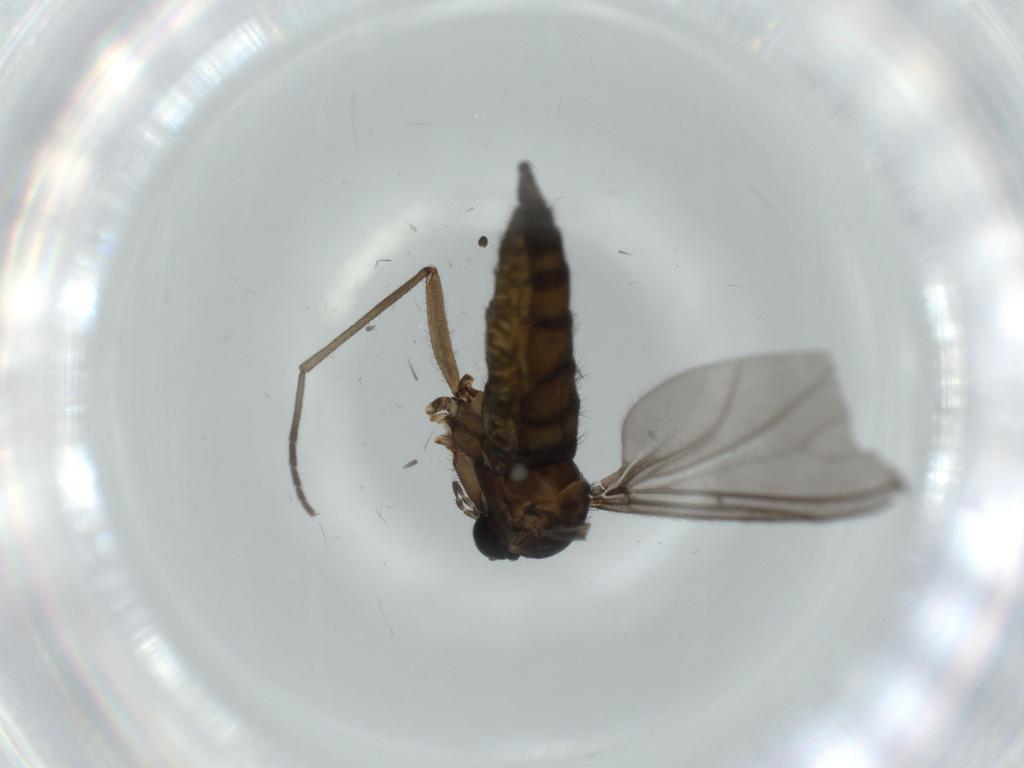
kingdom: Animalia
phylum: Arthropoda
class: Insecta
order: Diptera
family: Sciaridae
